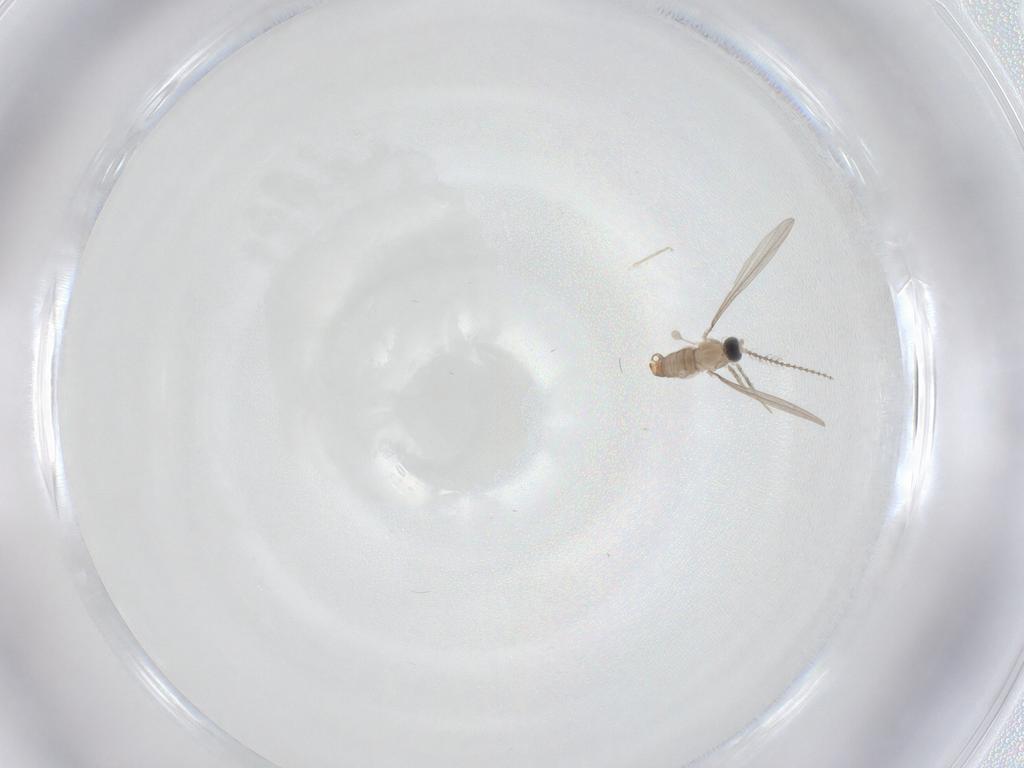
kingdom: Animalia
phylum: Arthropoda
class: Insecta
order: Diptera
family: Cecidomyiidae
